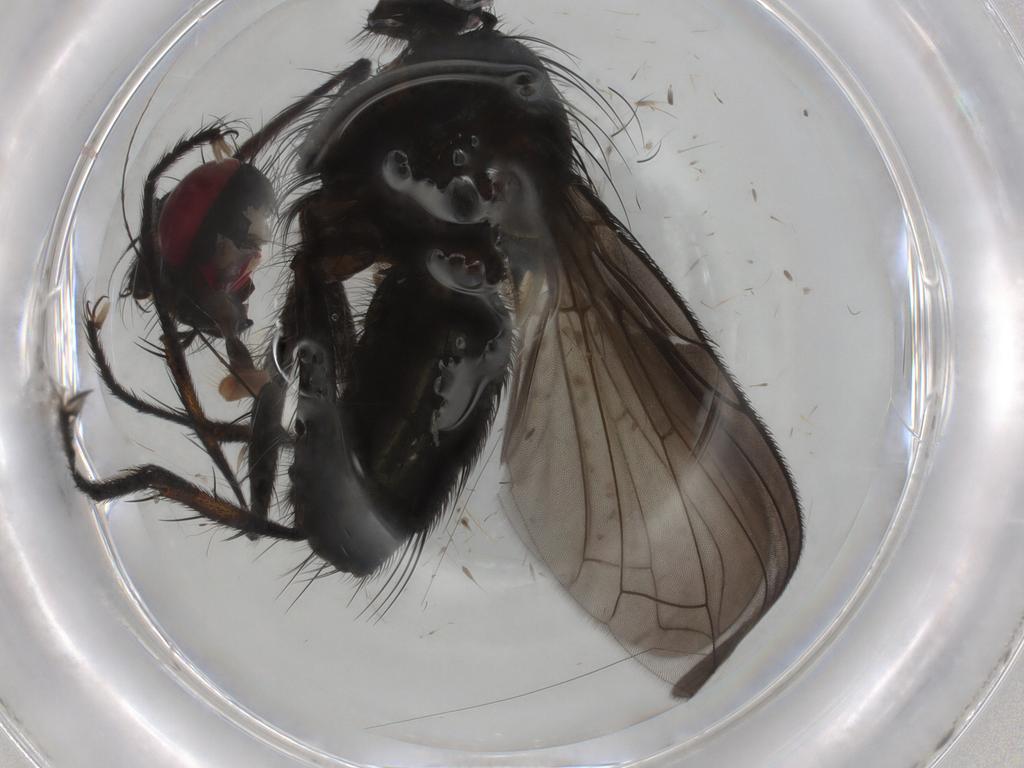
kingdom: Animalia
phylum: Arthropoda
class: Insecta
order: Diptera
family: Tachinidae
